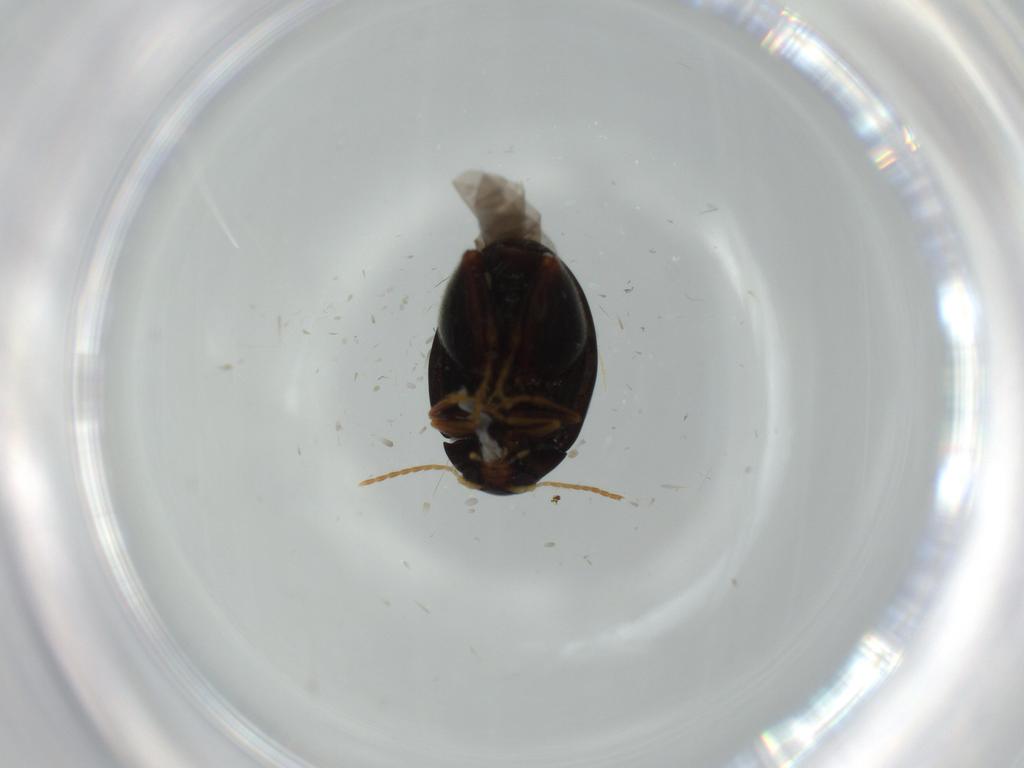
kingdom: Animalia
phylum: Arthropoda
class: Insecta
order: Coleoptera
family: Chrysomelidae
